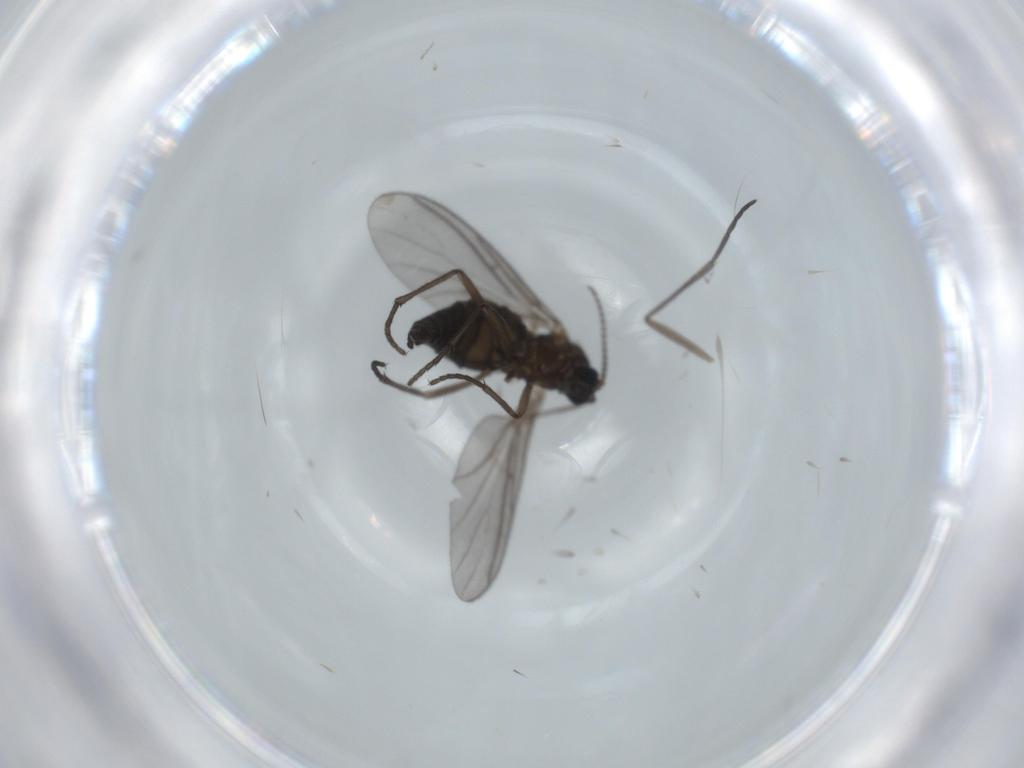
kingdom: Animalia
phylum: Arthropoda
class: Insecta
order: Diptera
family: Sciaridae
